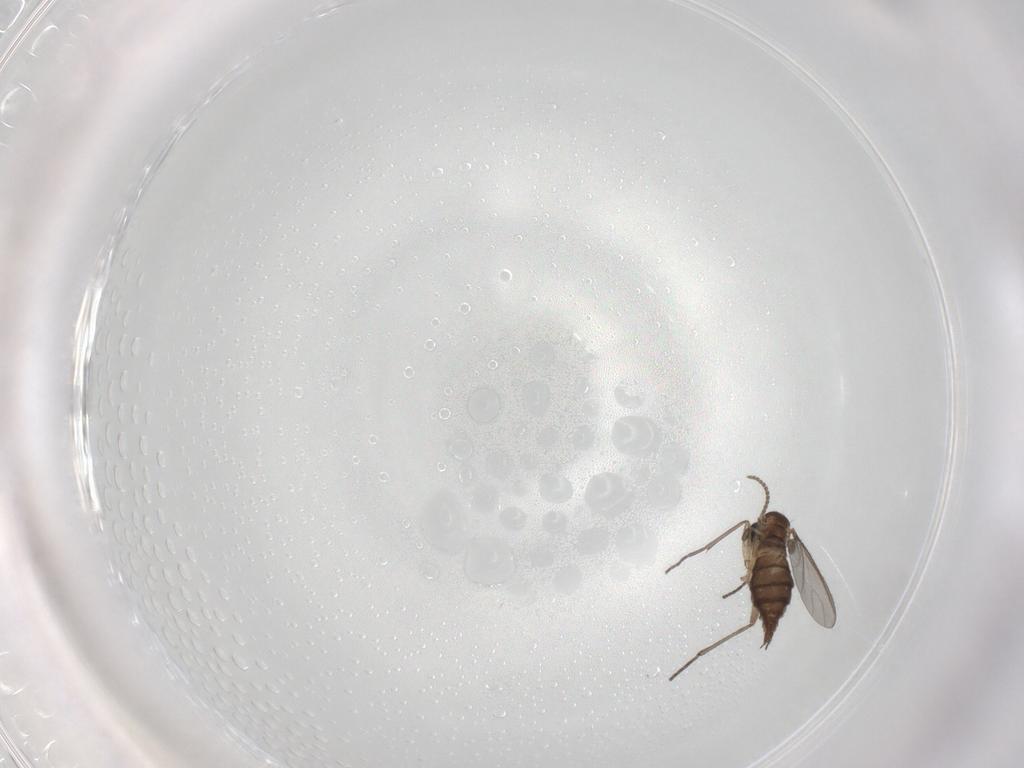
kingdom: Animalia
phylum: Arthropoda
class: Insecta
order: Diptera
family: Sciaridae
